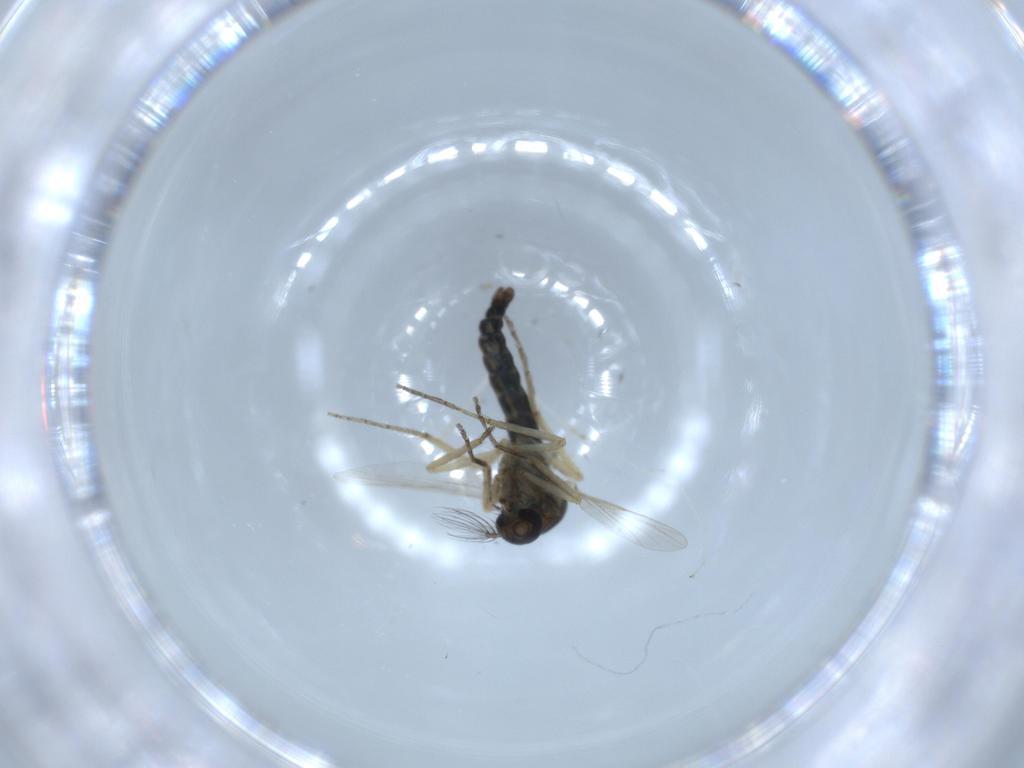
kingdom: Animalia
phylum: Arthropoda
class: Insecta
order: Diptera
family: Ceratopogonidae
